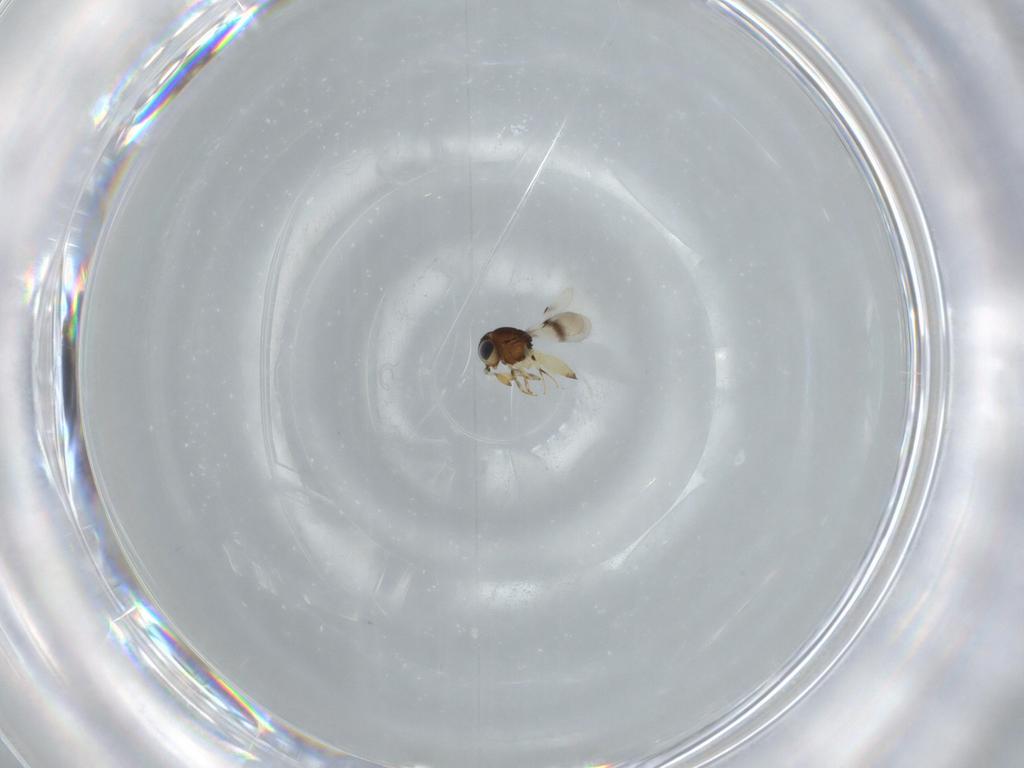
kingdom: Animalia
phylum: Arthropoda
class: Insecta
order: Hymenoptera
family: Scelionidae
